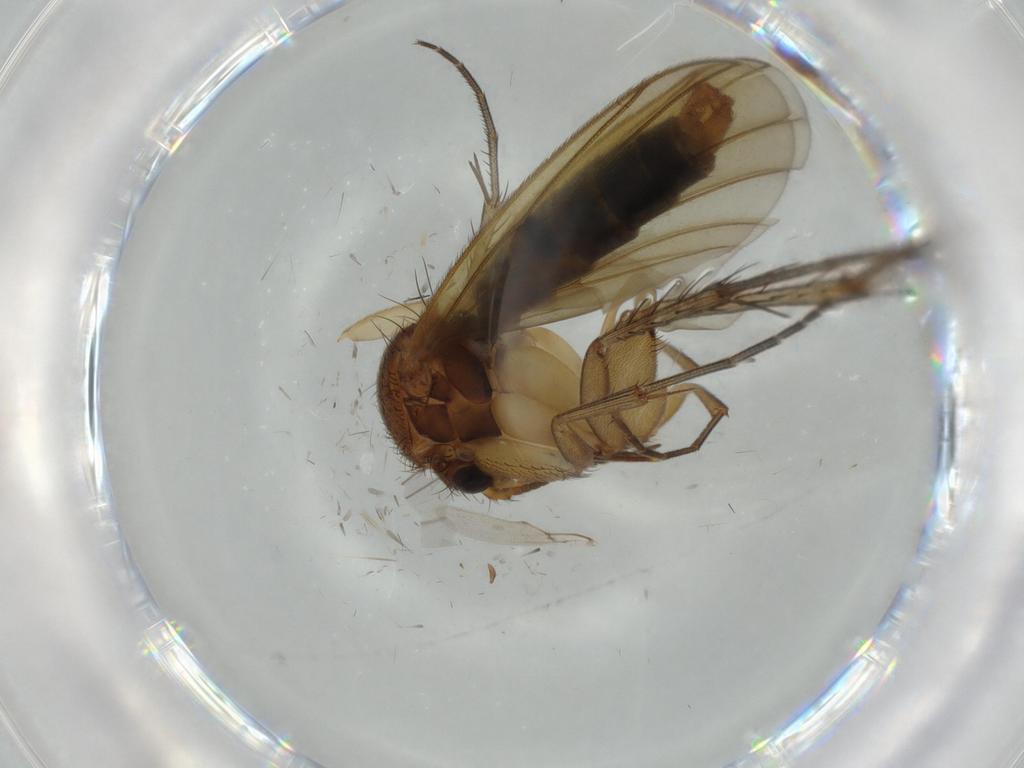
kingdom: Animalia
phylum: Arthropoda
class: Insecta
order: Diptera
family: Heleomyzidae
